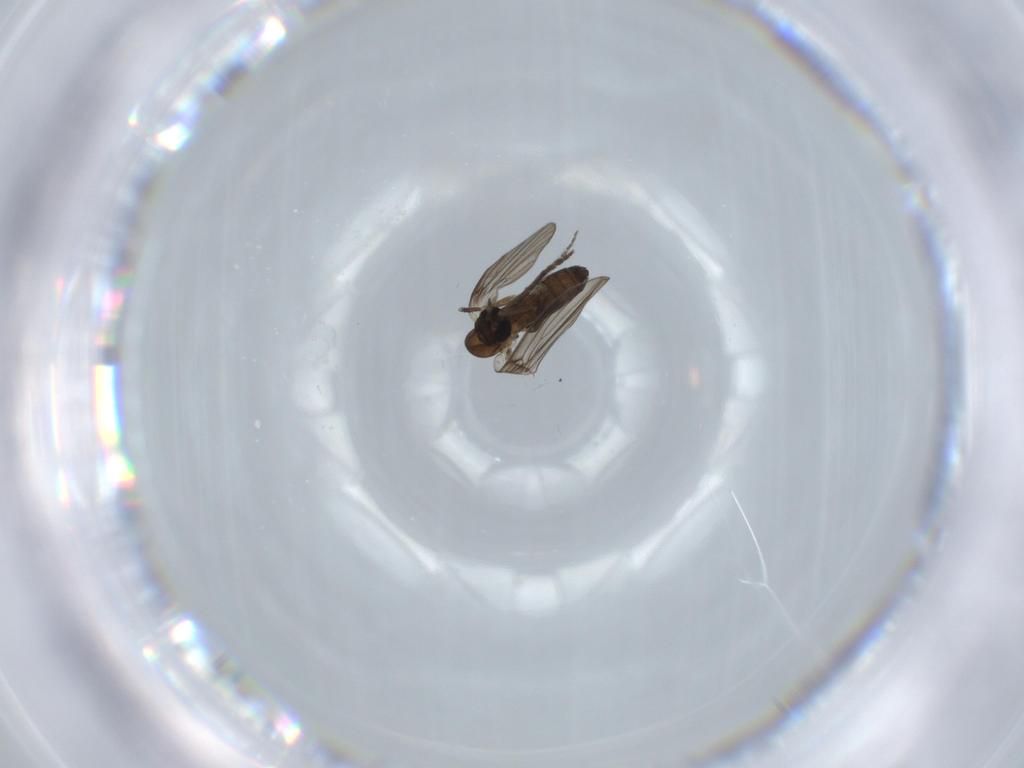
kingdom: Animalia
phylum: Arthropoda
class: Insecta
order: Diptera
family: Psychodidae
